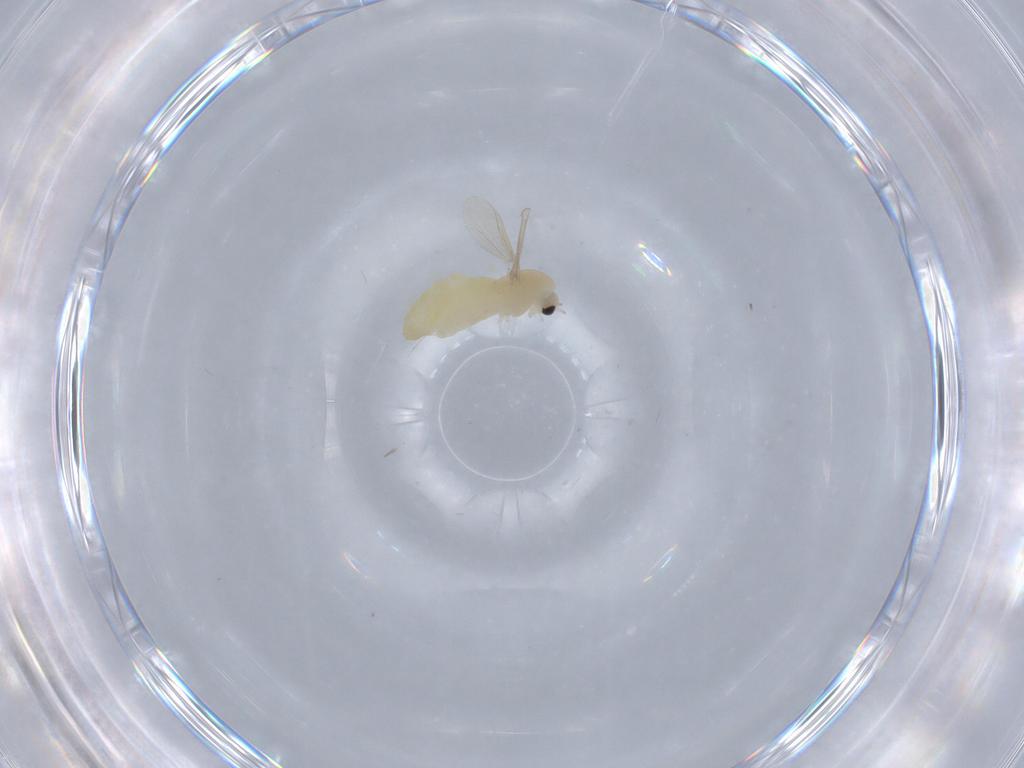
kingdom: Animalia
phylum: Arthropoda
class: Insecta
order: Diptera
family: Chironomidae
